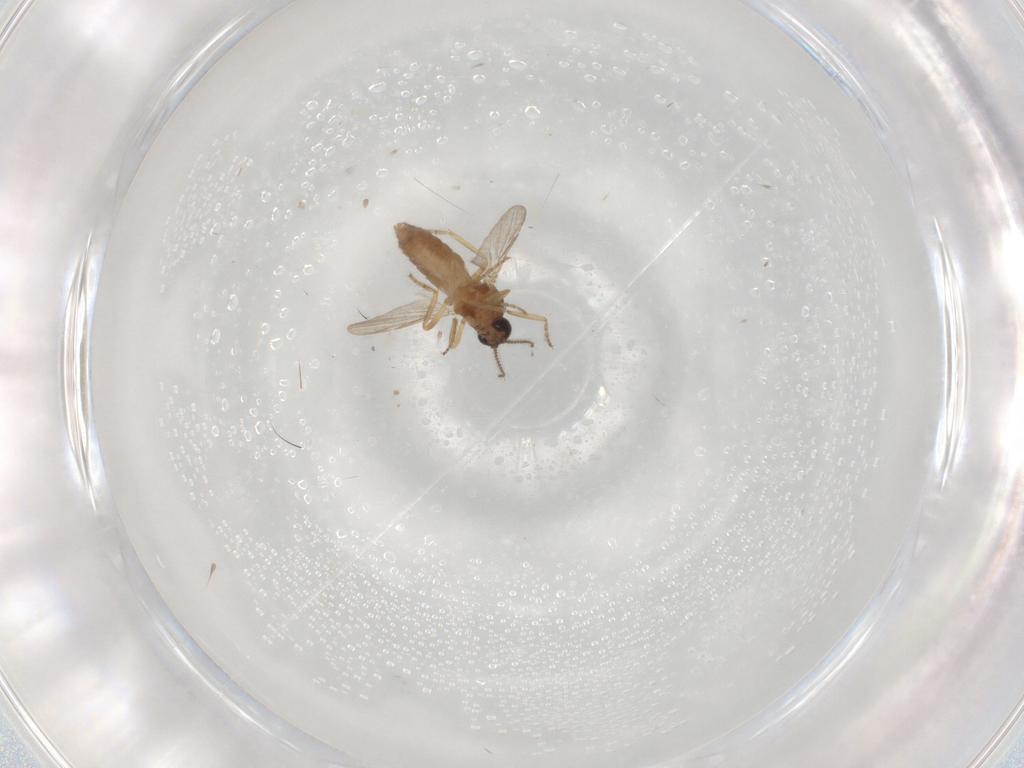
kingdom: Animalia
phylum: Arthropoda
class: Insecta
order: Diptera
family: Ceratopogonidae
